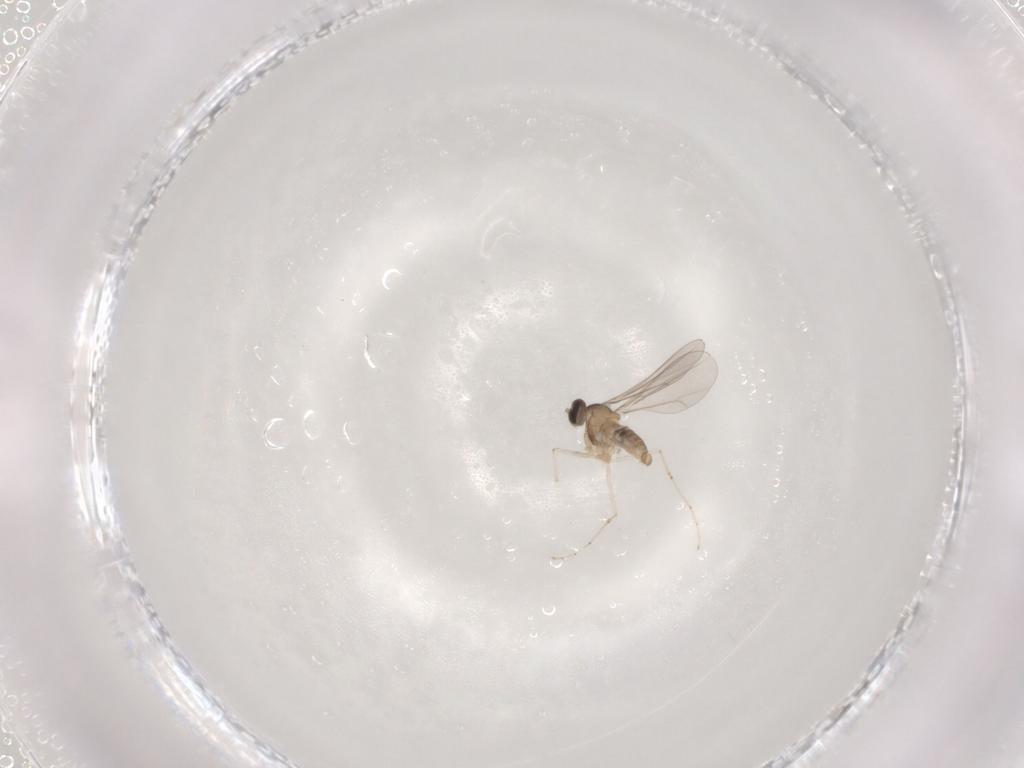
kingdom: Animalia
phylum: Arthropoda
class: Insecta
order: Diptera
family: Cecidomyiidae
